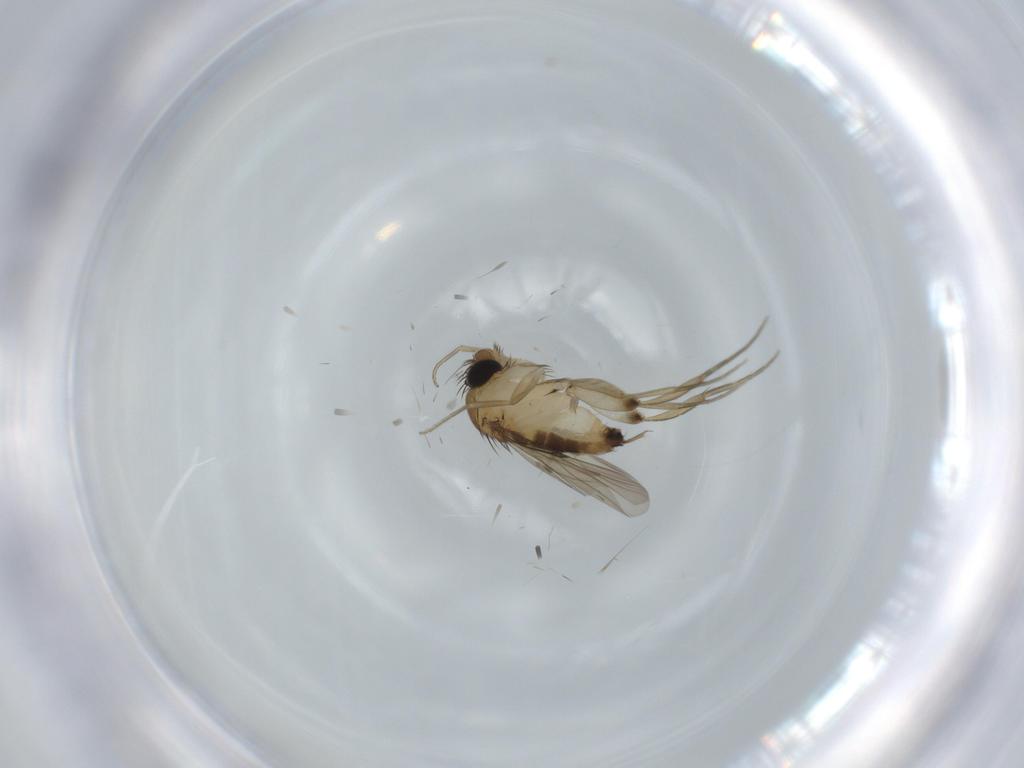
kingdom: Animalia
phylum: Arthropoda
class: Insecta
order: Diptera
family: Phoridae
